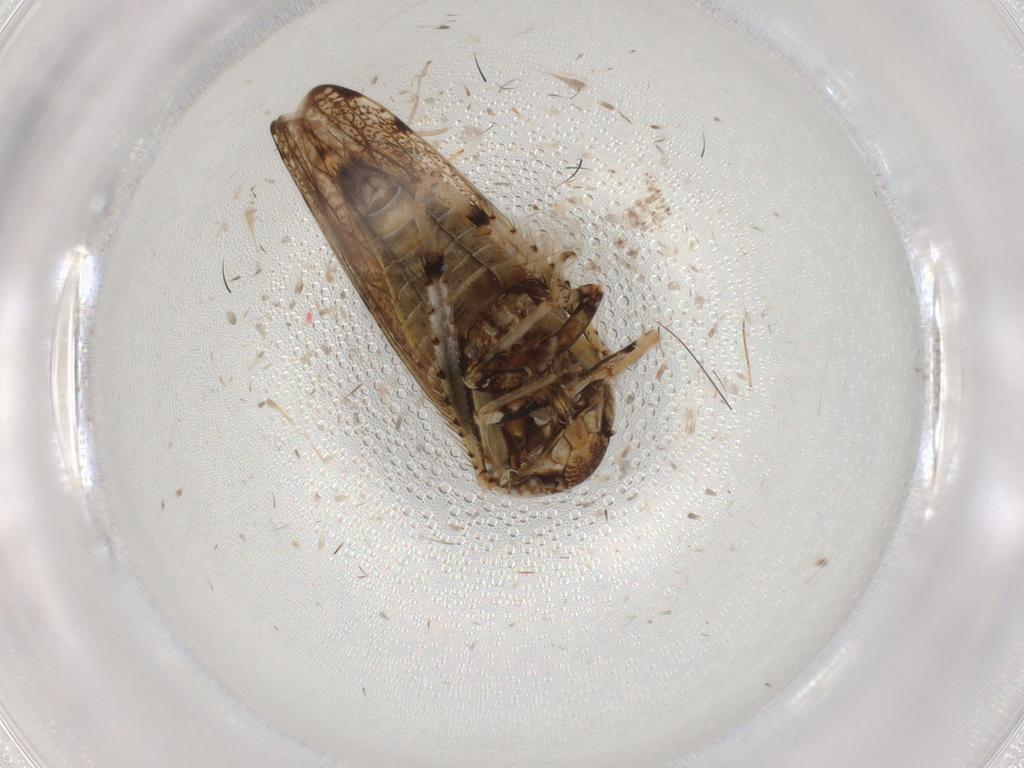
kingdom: Animalia
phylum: Arthropoda
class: Insecta
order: Hemiptera
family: Cicadellidae
